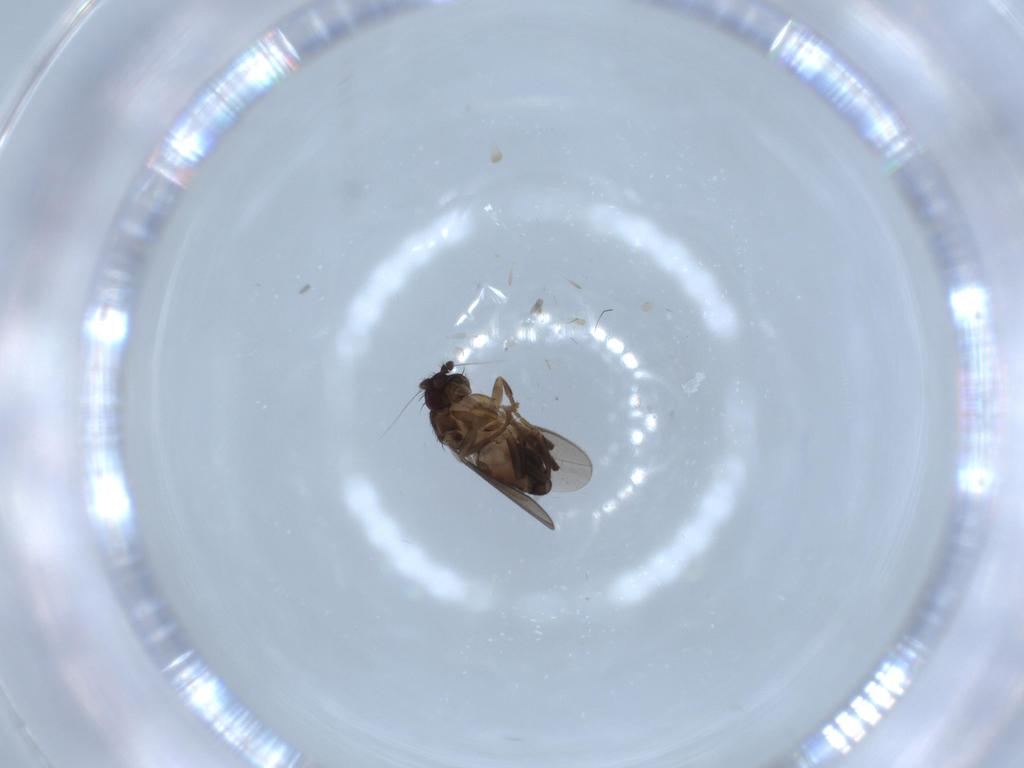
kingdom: Animalia
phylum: Arthropoda
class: Insecta
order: Diptera
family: Sphaeroceridae
